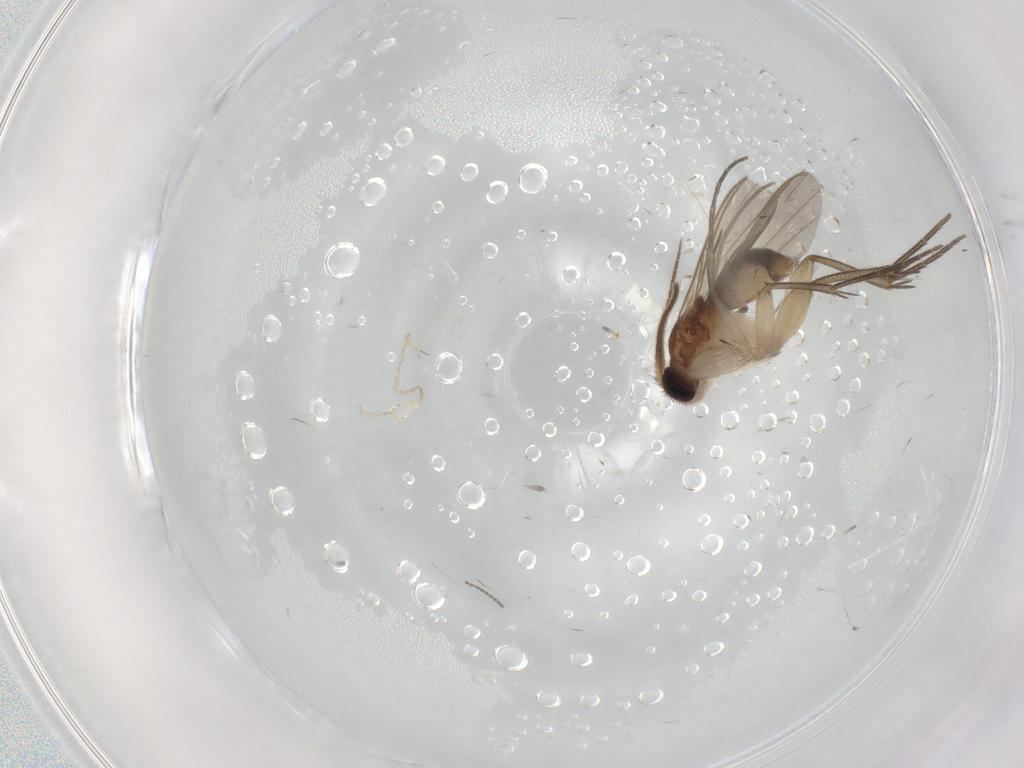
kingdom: Animalia
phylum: Arthropoda
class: Insecta
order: Diptera
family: Mycetophilidae
